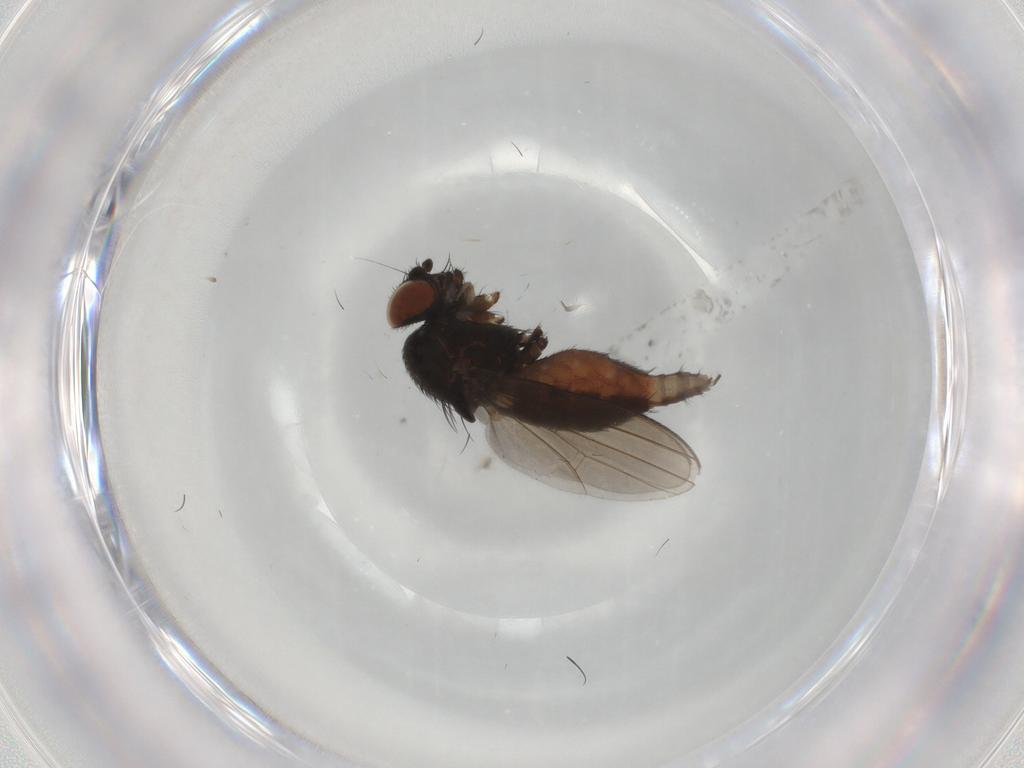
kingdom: Animalia
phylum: Arthropoda
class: Insecta
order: Diptera
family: Milichiidae
